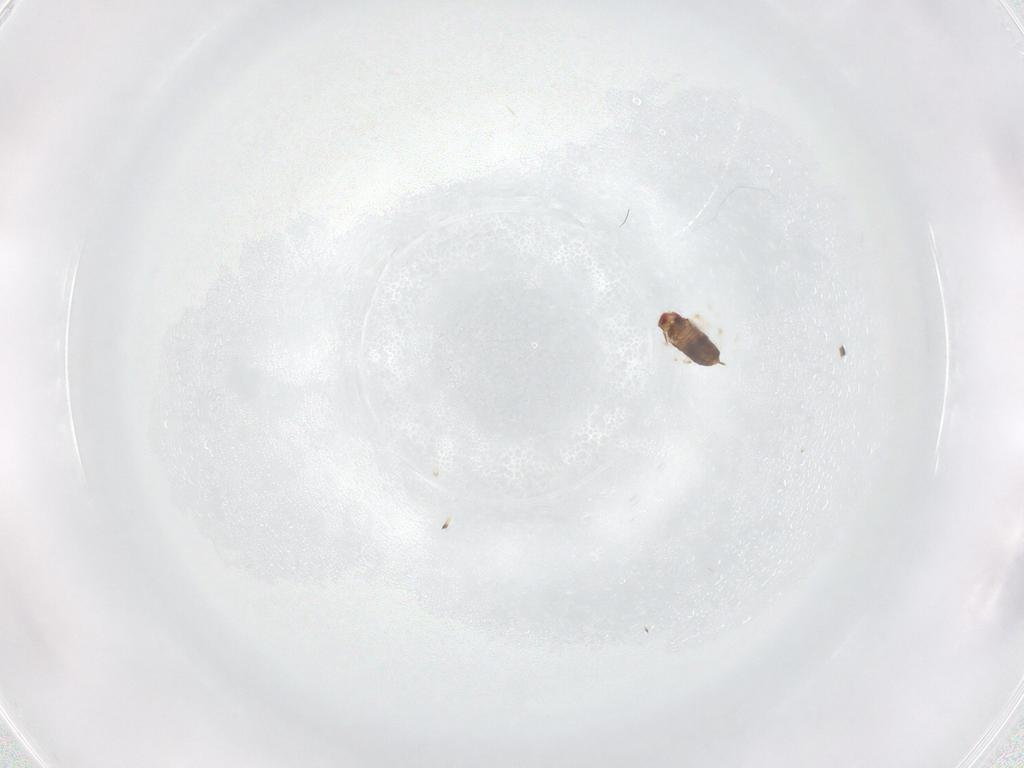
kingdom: Animalia
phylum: Arthropoda
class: Insecta
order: Hymenoptera
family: Azotidae
